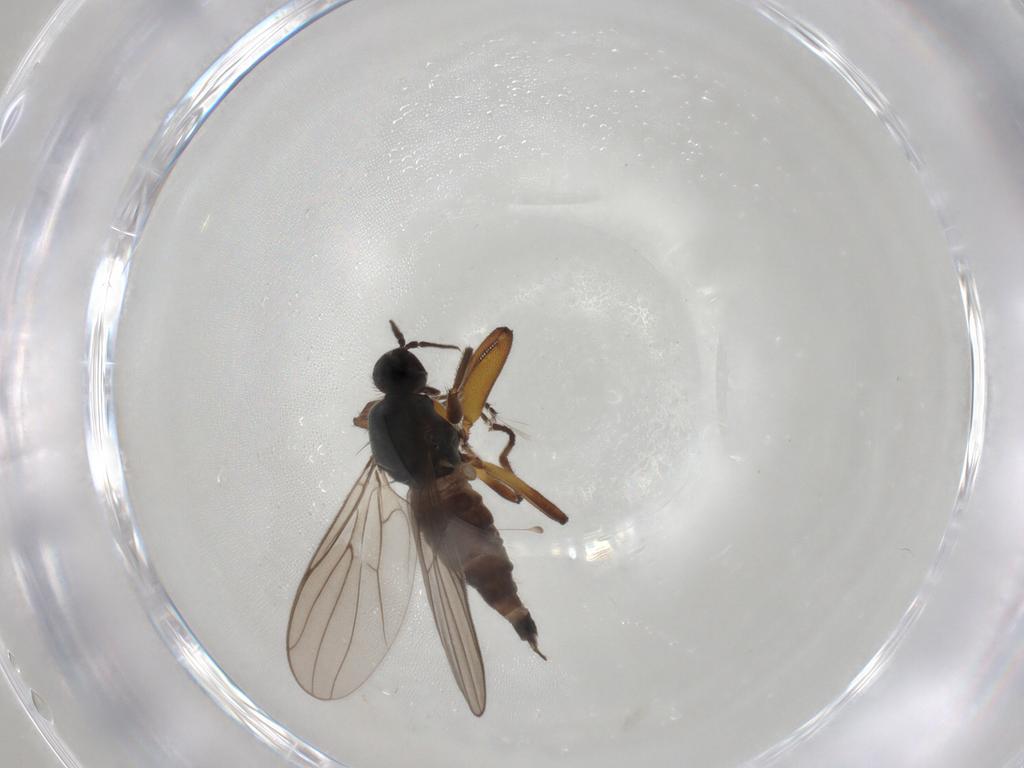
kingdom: Animalia
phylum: Arthropoda
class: Insecta
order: Diptera
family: Hybotidae
